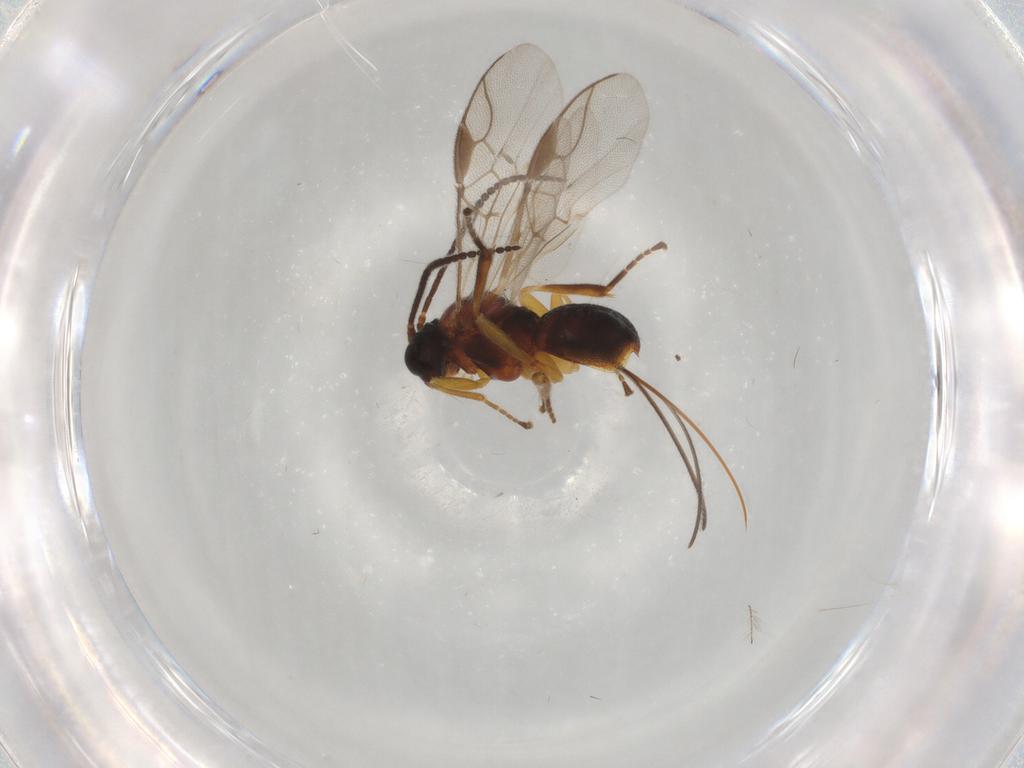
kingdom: Animalia
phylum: Arthropoda
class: Insecta
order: Hymenoptera
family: Braconidae
